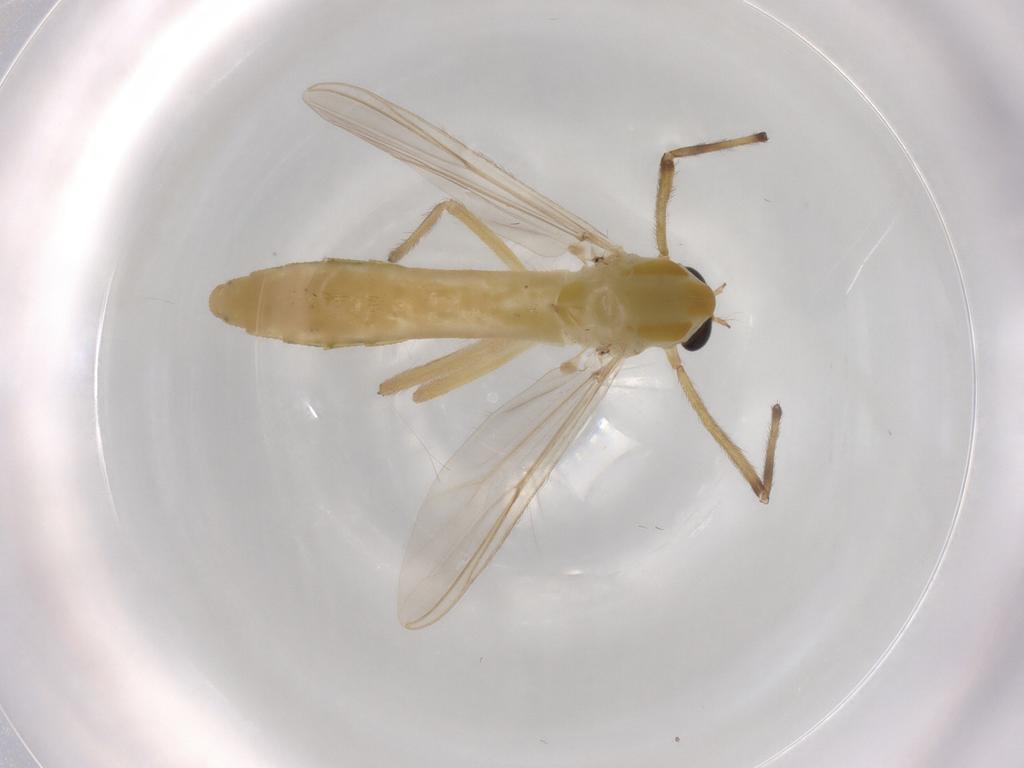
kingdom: Animalia
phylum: Arthropoda
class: Insecta
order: Diptera
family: Chironomidae
